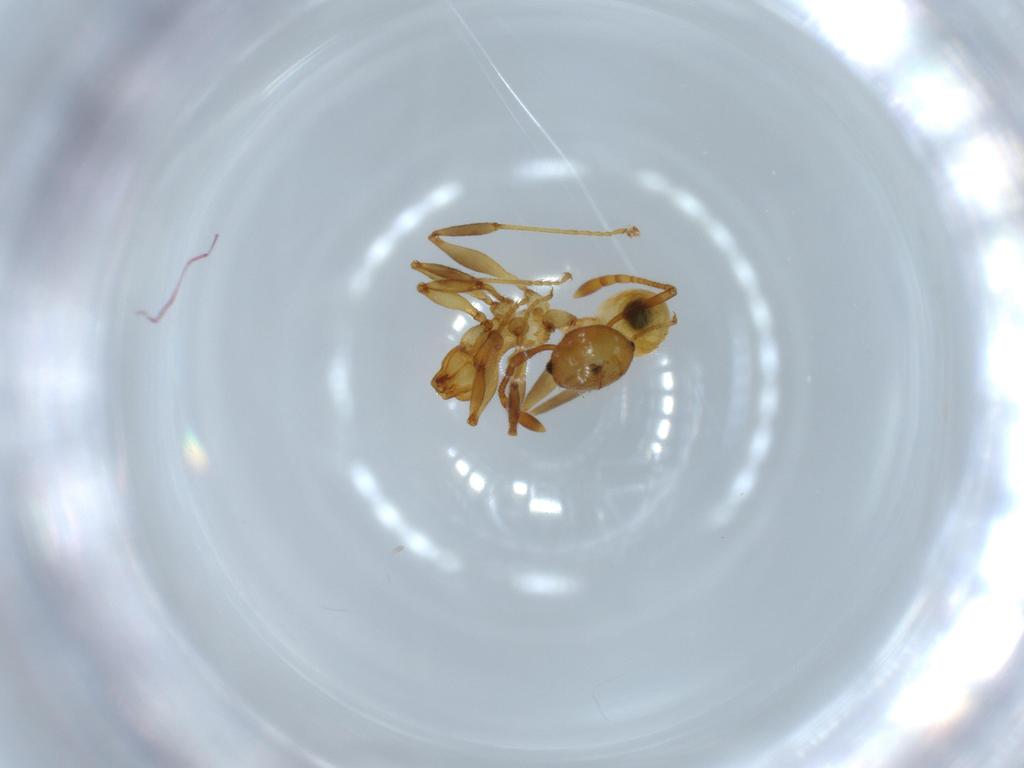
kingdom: Animalia
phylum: Arthropoda
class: Insecta
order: Hymenoptera
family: Formicidae
